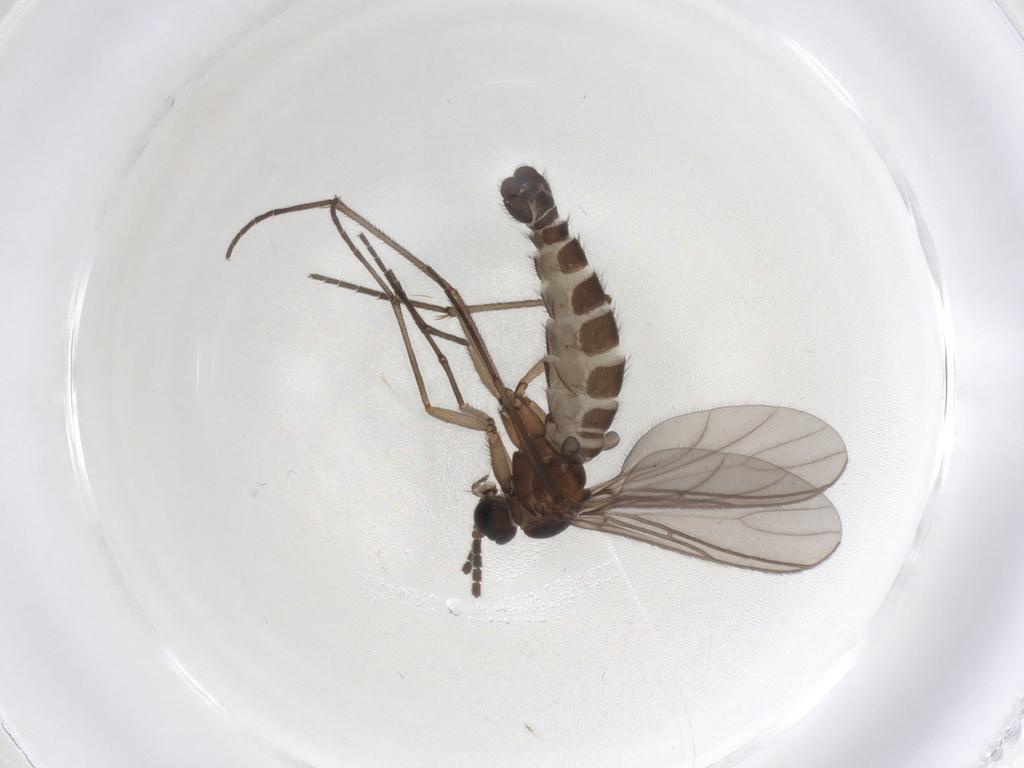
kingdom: Animalia
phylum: Arthropoda
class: Insecta
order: Diptera
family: Sciaridae
